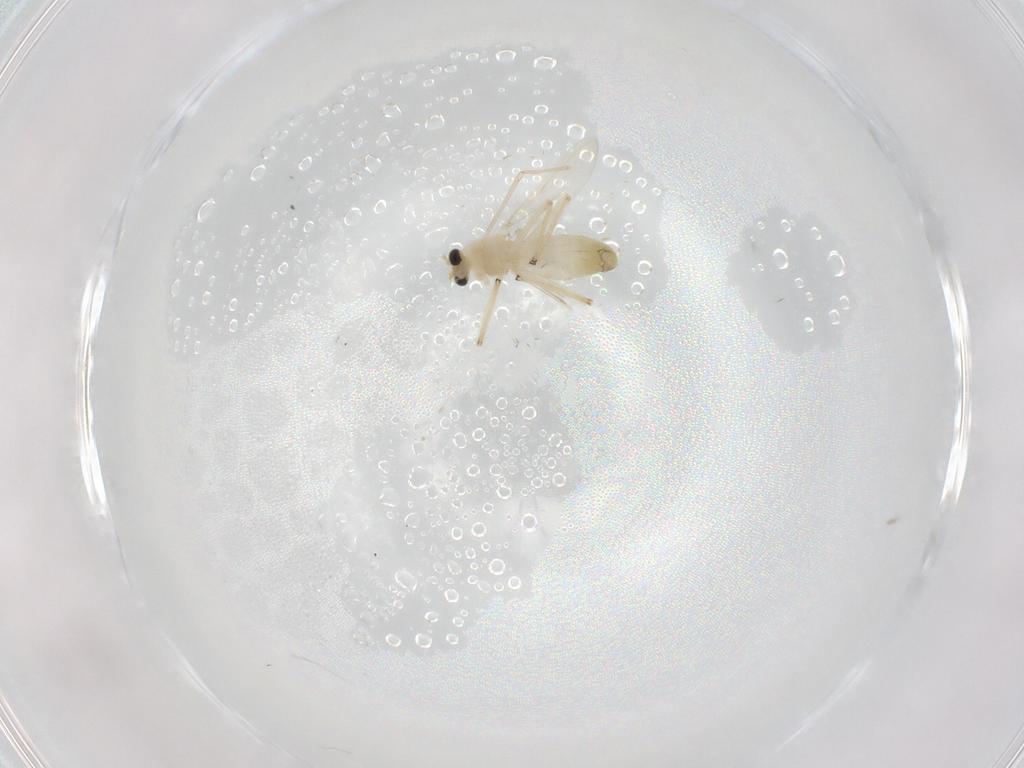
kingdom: Animalia
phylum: Arthropoda
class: Insecta
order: Diptera
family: Chironomidae
